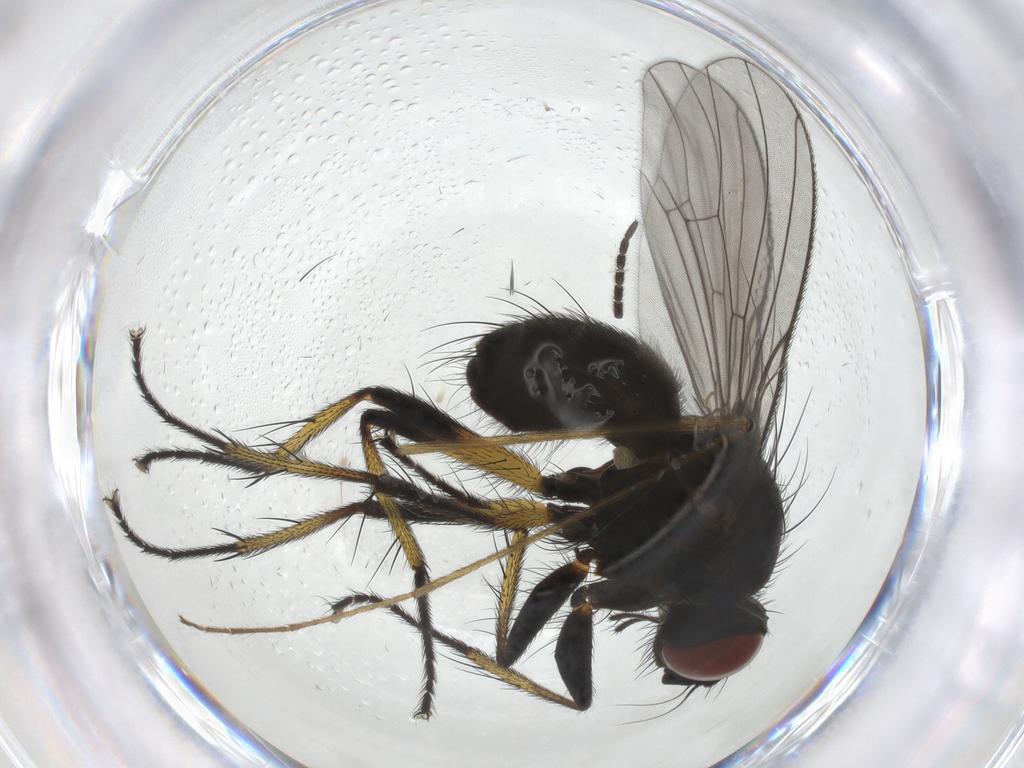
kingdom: Animalia
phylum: Arthropoda
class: Insecta
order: Diptera
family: Muscidae
